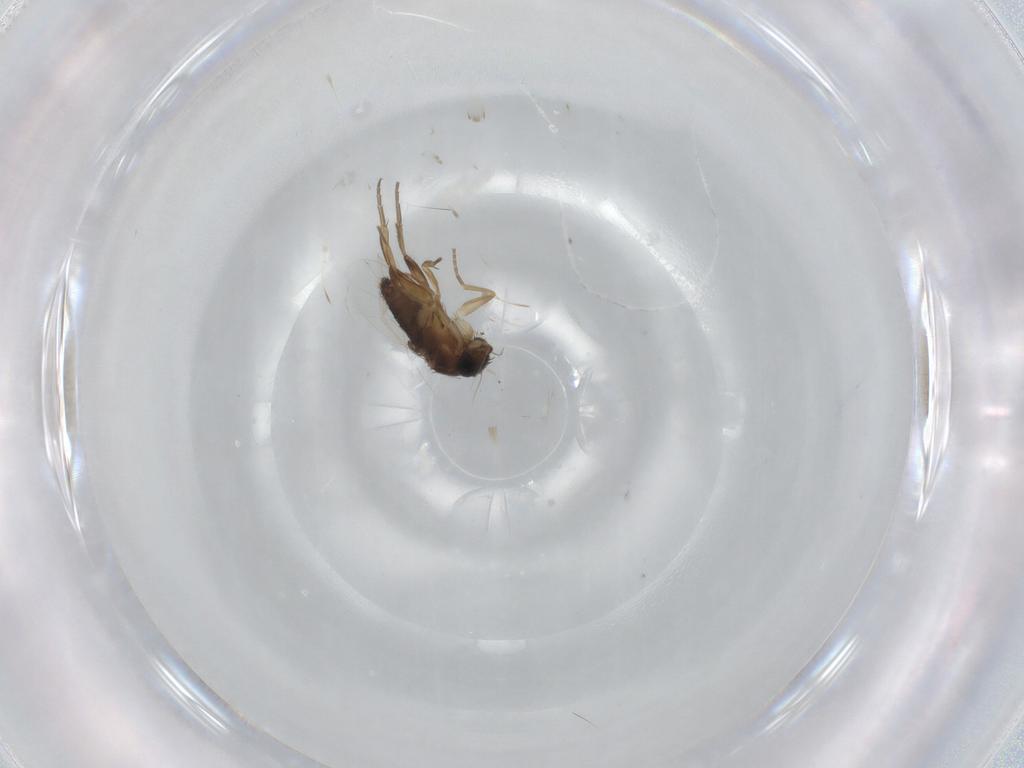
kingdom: Animalia
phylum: Arthropoda
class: Insecta
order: Diptera
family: Phoridae
